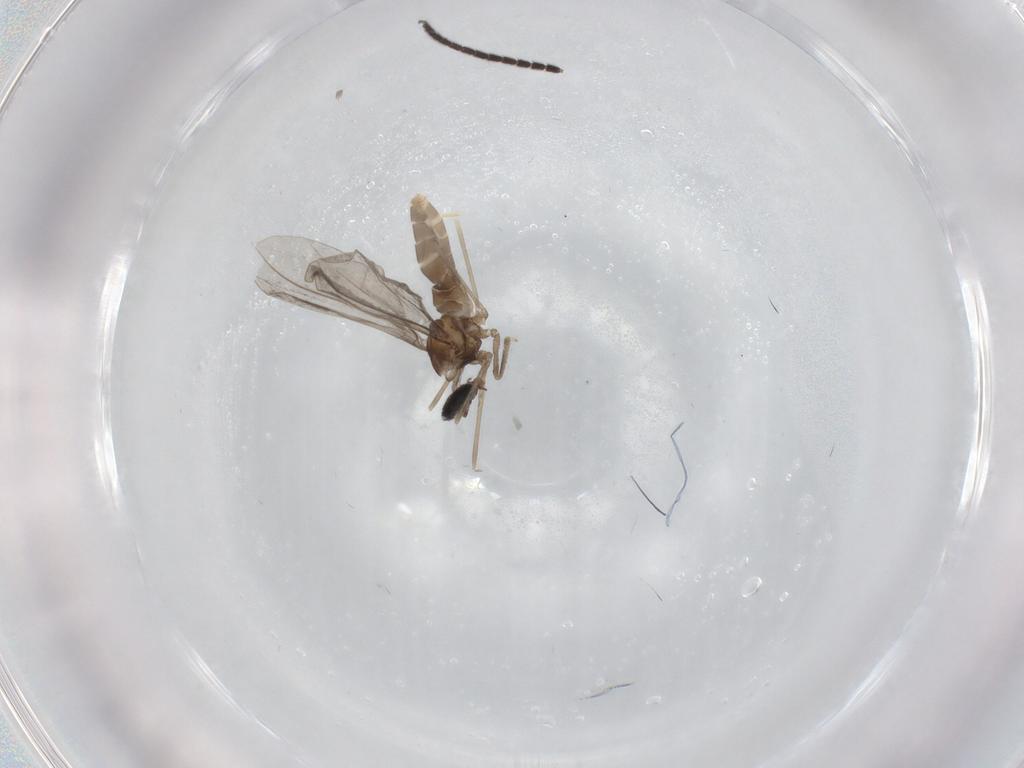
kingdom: Animalia
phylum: Arthropoda
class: Insecta
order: Diptera
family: Cecidomyiidae
